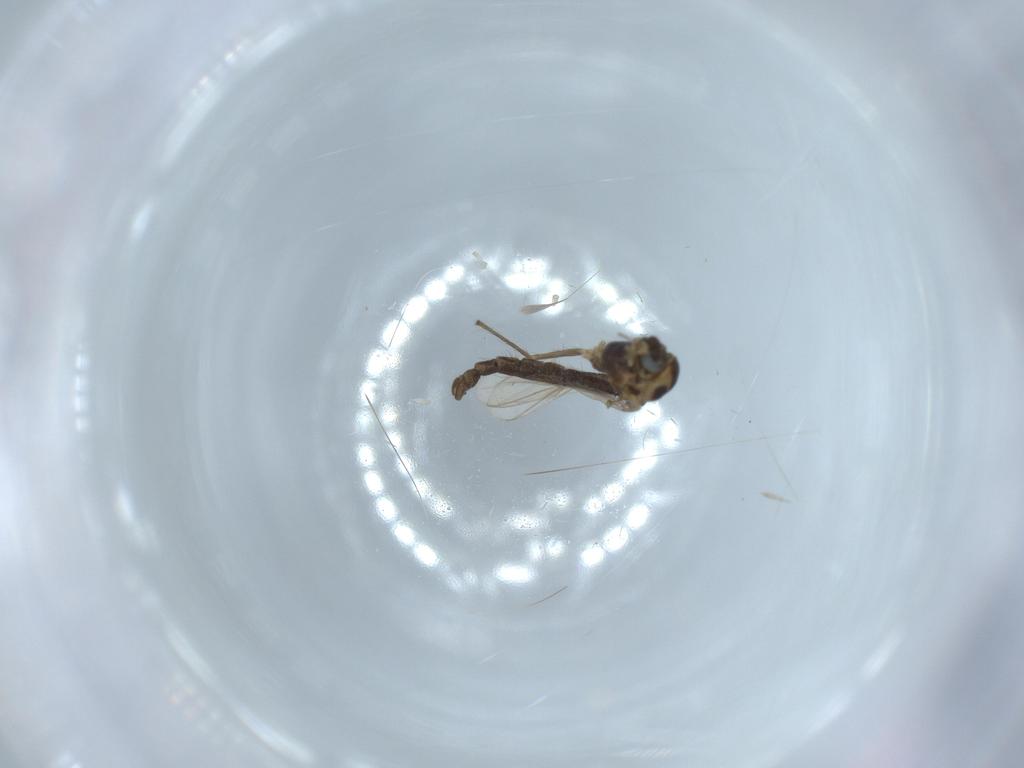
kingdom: Animalia
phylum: Arthropoda
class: Insecta
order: Diptera
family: Chironomidae
